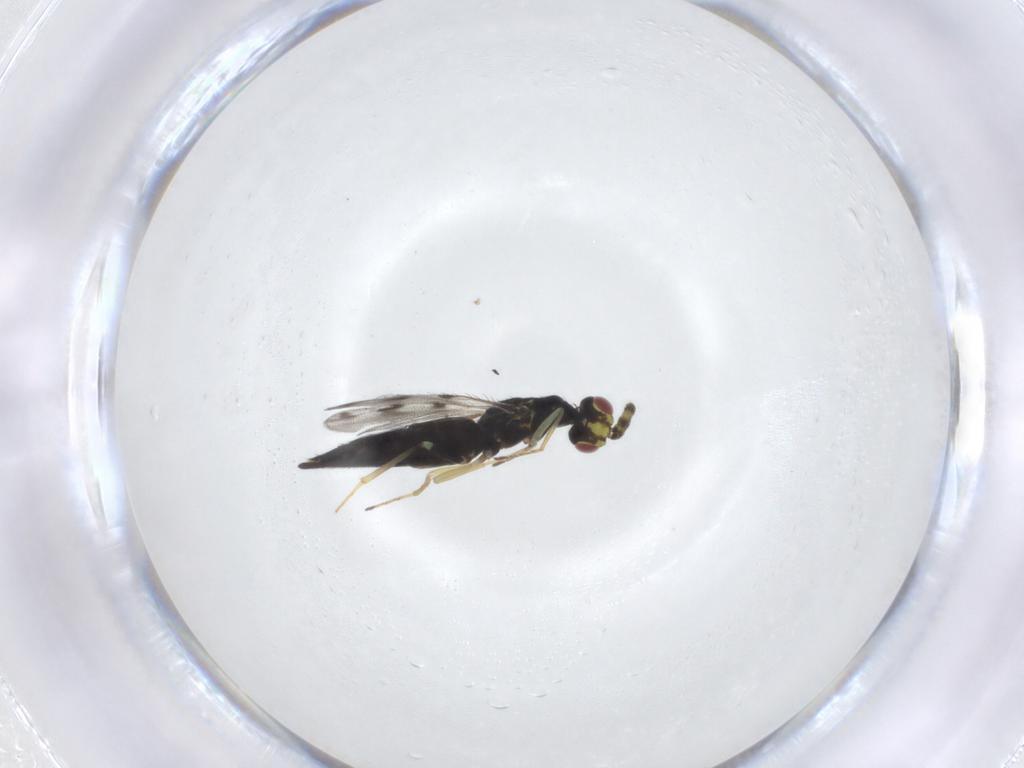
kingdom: Animalia
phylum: Arthropoda
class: Insecta
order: Hymenoptera
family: Eulophidae
